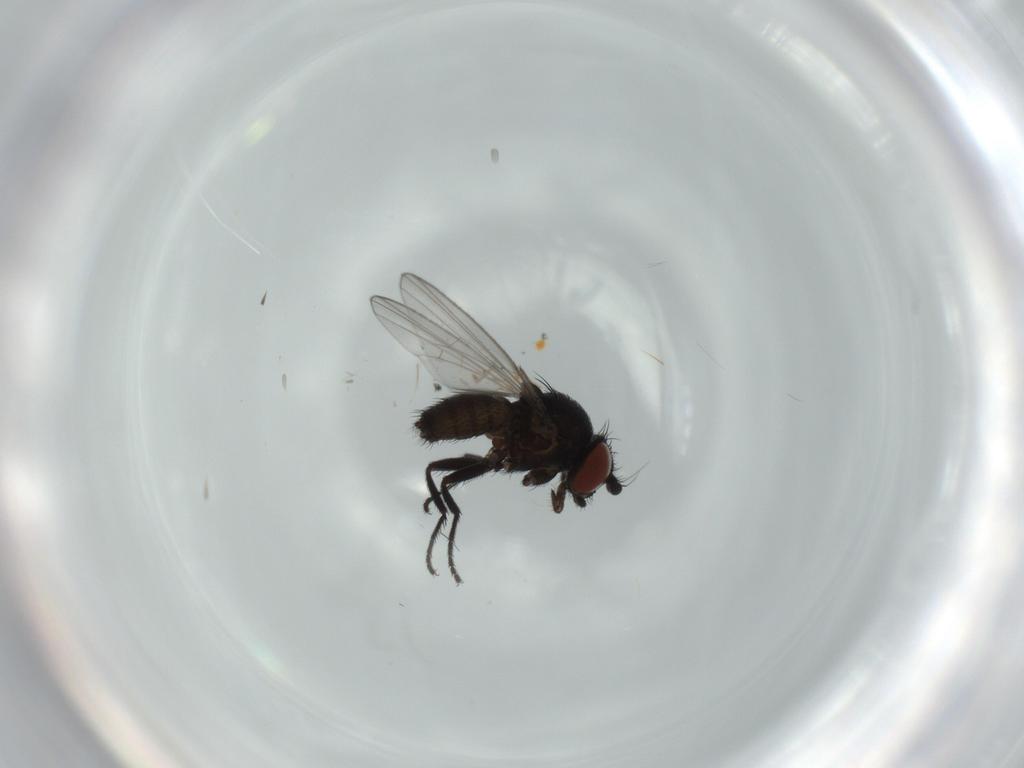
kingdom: Animalia
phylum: Arthropoda
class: Insecta
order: Diptera
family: Milichiidae
